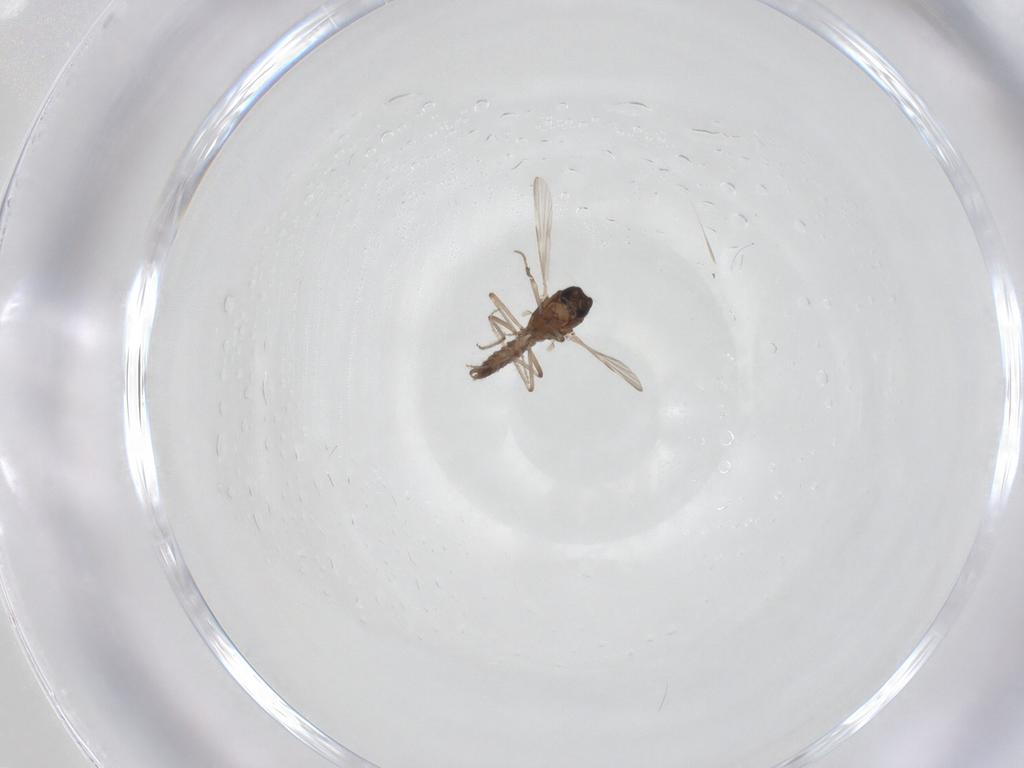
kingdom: Animalia
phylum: Arthropoda
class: Insecta
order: Diptera
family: Ceratopogonidae
